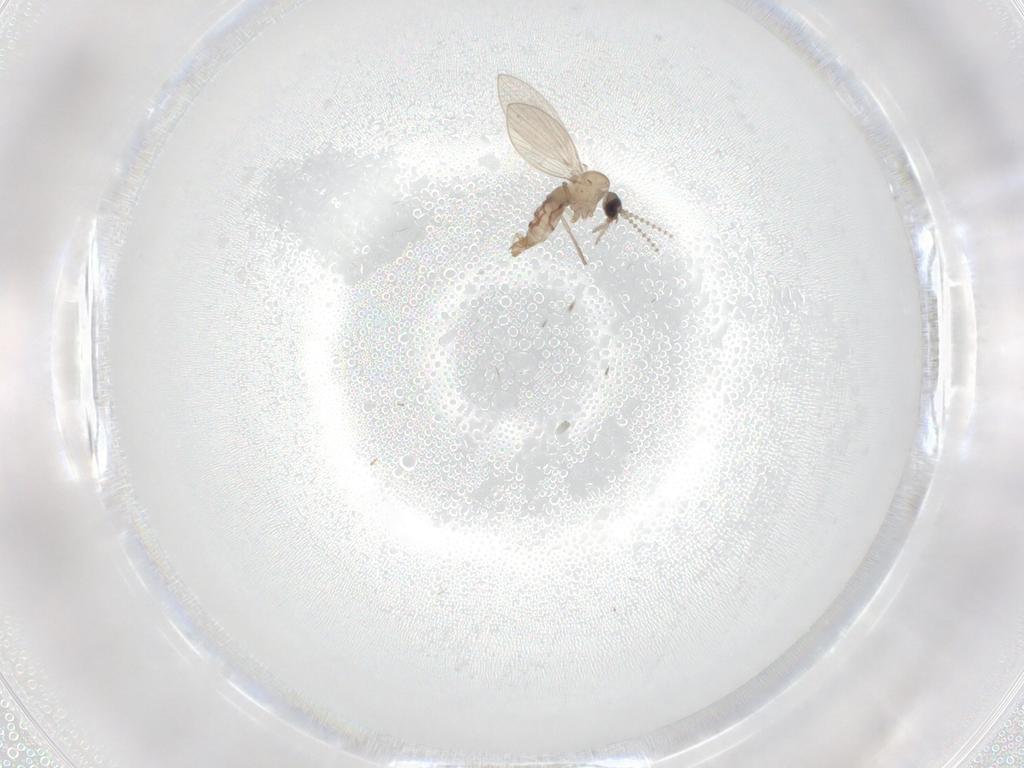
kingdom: Animalia
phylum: Arthropoda
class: Insecta
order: Diptera
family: Ceratopogonidae
